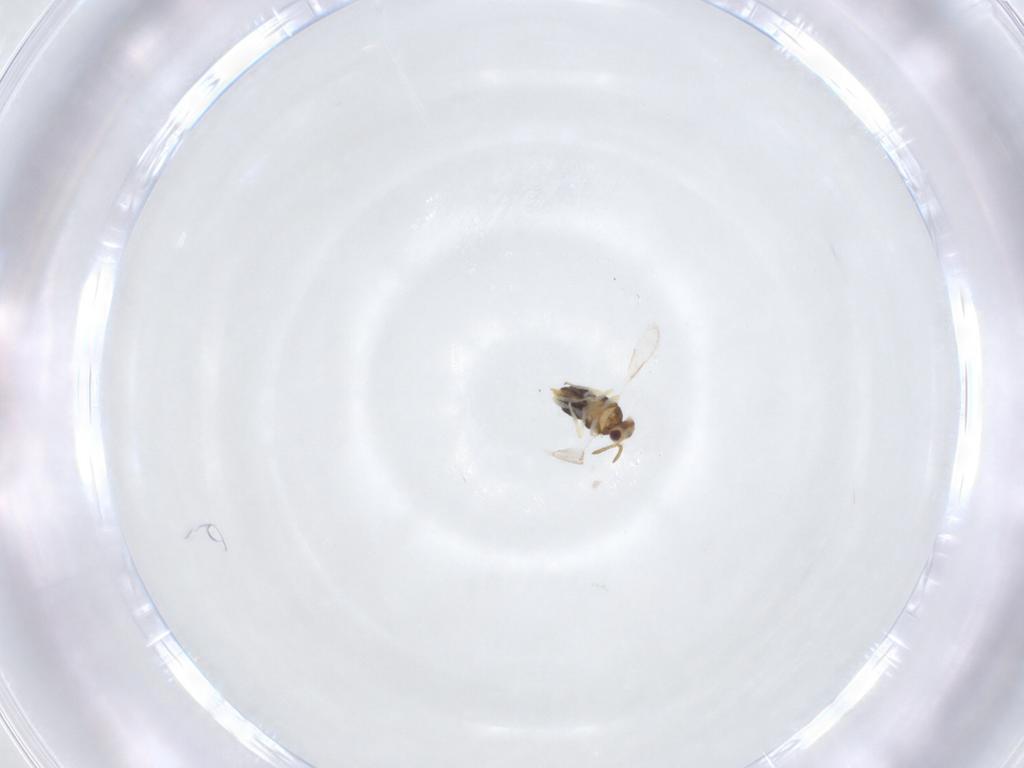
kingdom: Animalia
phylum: Arthropoda
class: Insecta
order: Hymenoptera
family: Aphelinidae
